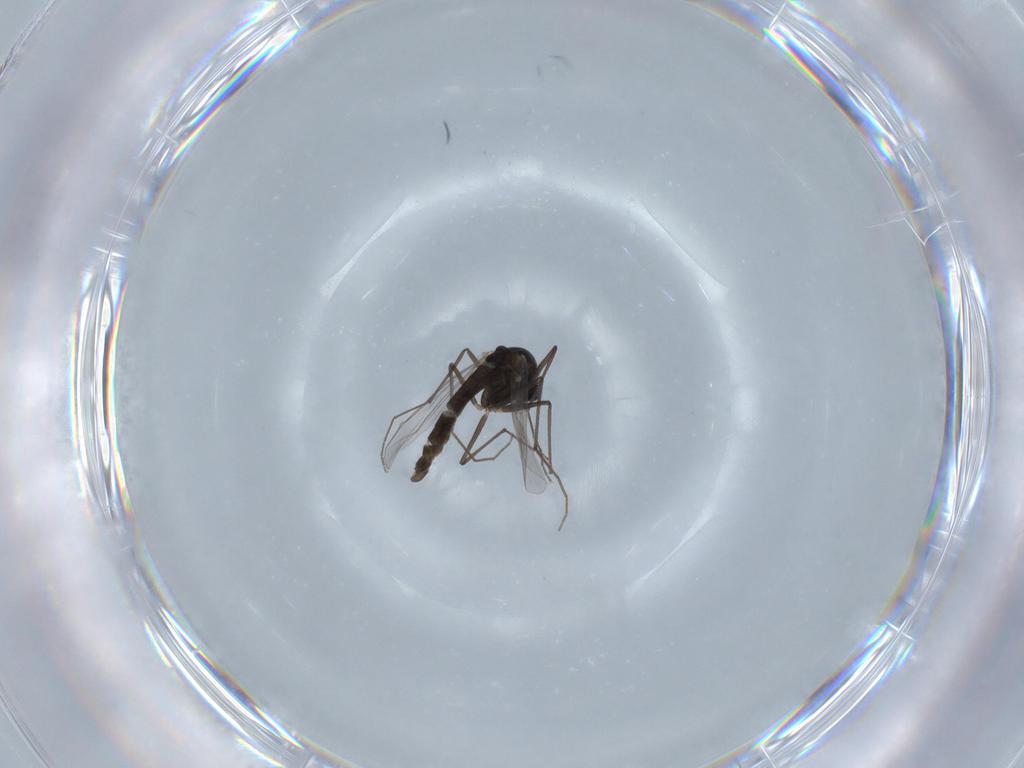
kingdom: Animalia
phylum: Arthropoda
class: Insecta
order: Diptera
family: Chironomidae
